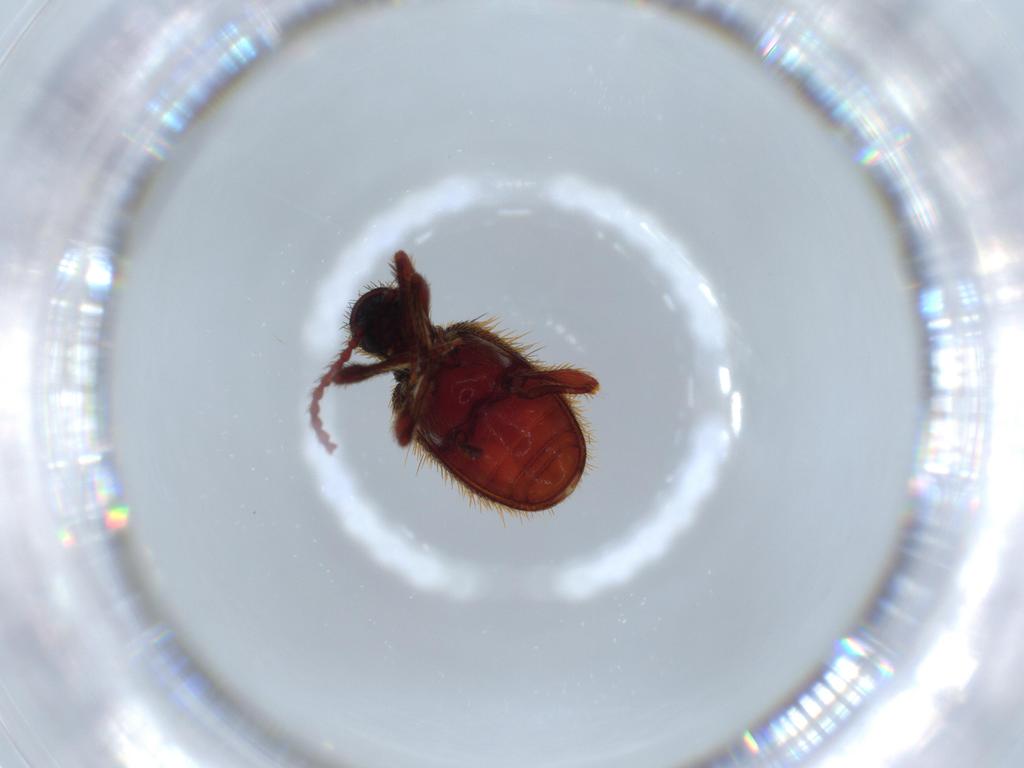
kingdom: Animalia
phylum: Arthropoda
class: Insecta
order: Coleoptera
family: Ptinidae
